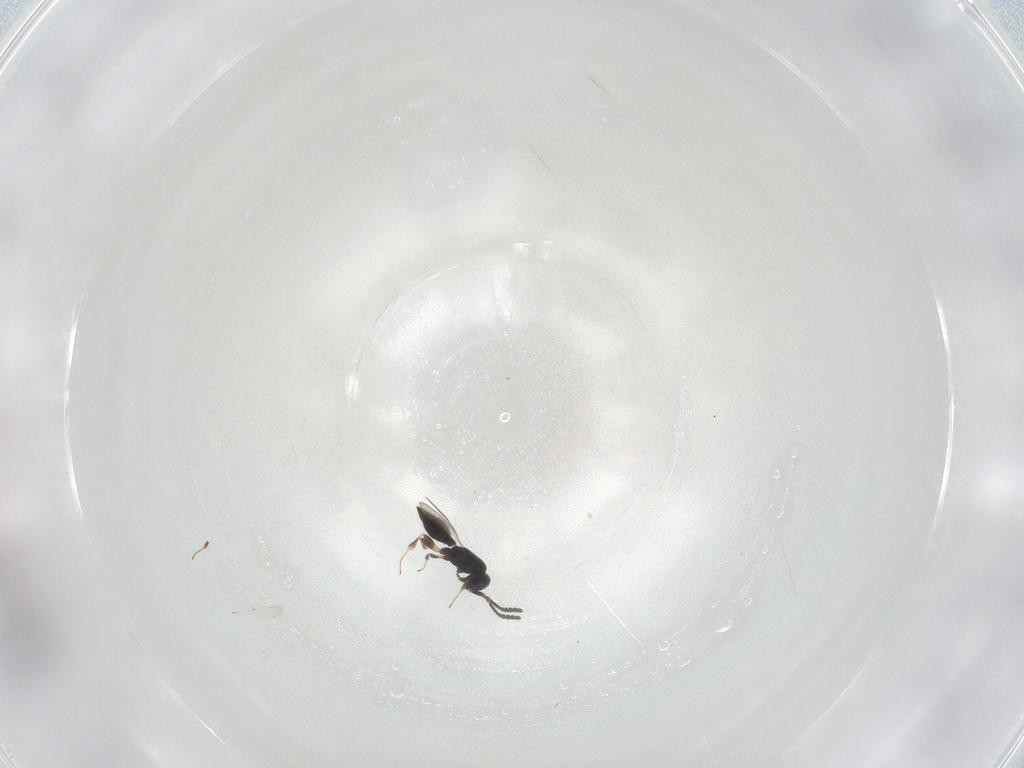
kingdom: Animalia
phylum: Arthropoda
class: Insecta
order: Hymenoptera
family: Scelionidae
